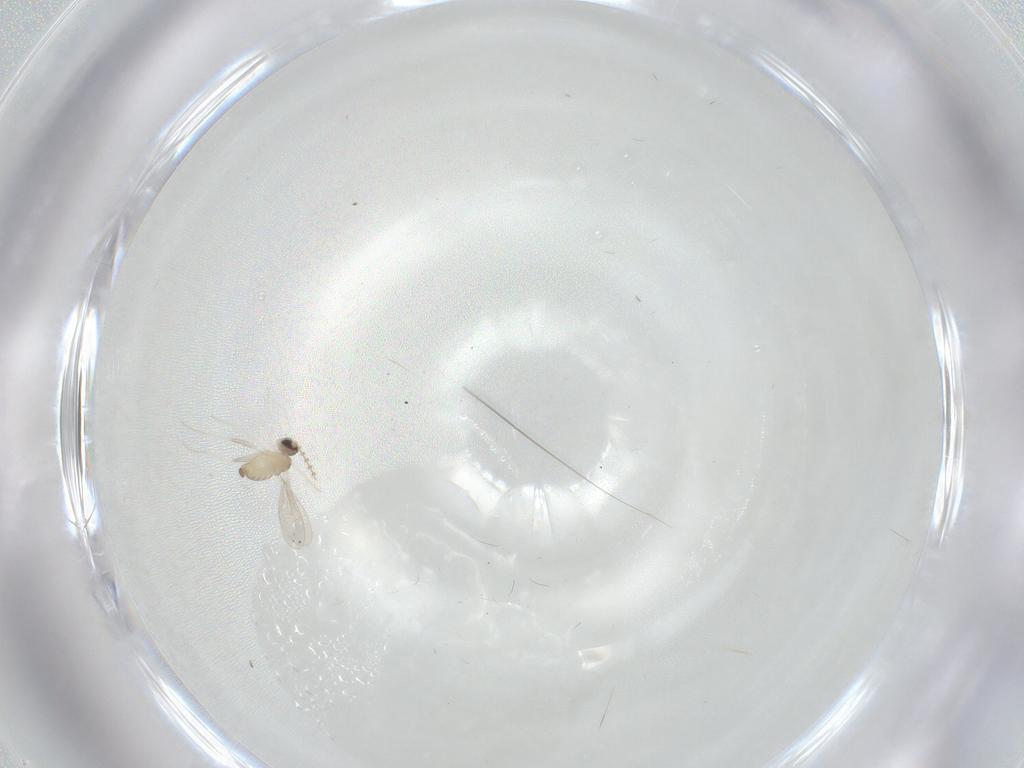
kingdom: Animalia
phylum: Arthropoda
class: Insecta
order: Diptera
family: Cecidomyiidae
